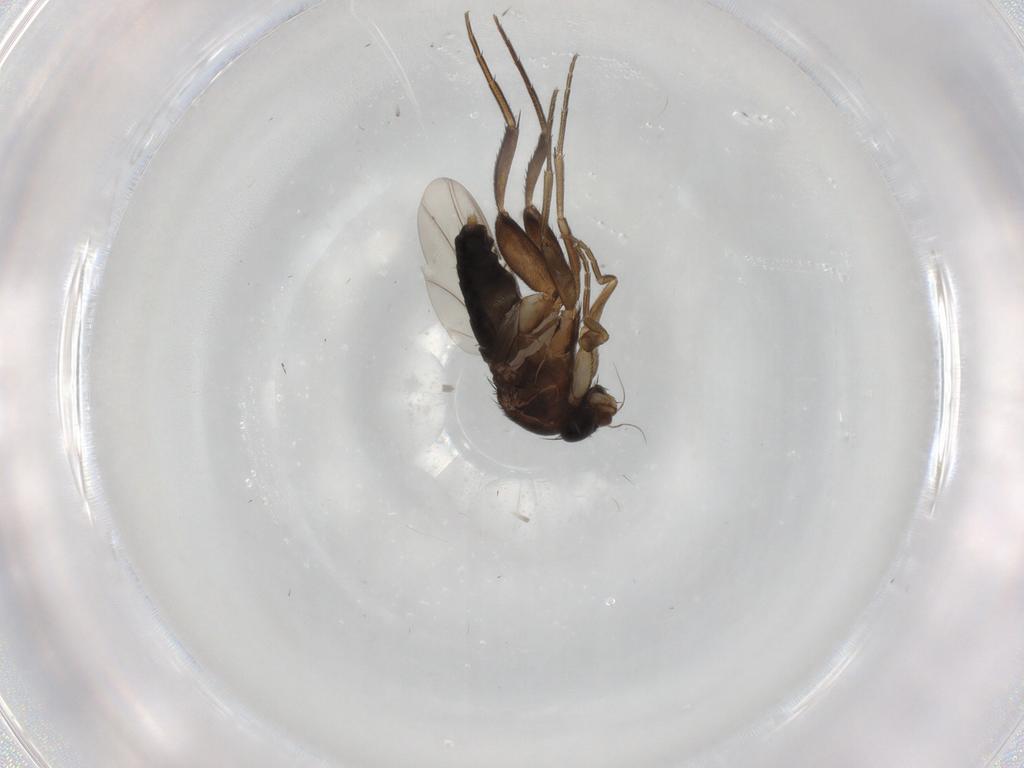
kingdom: Animalia
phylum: Arthropoda
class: Insecta
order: Diptera
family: Phoridae
